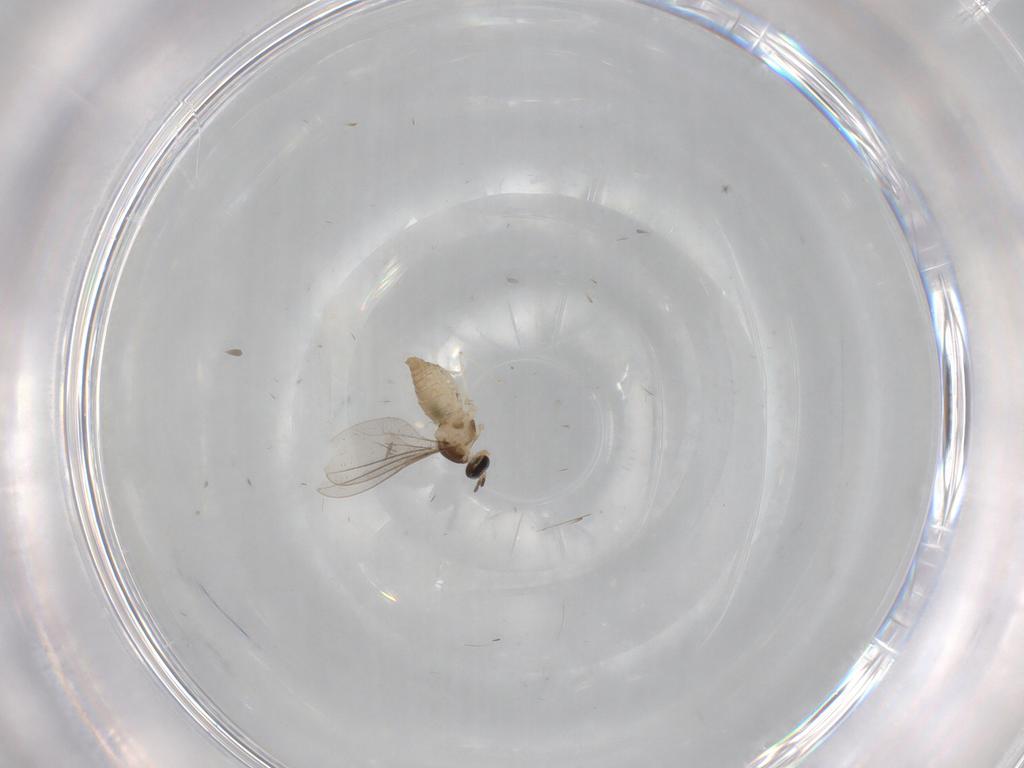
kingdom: Animalia
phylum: Arthropoda
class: Insecta
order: Diptera
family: Cecidomyiidae
